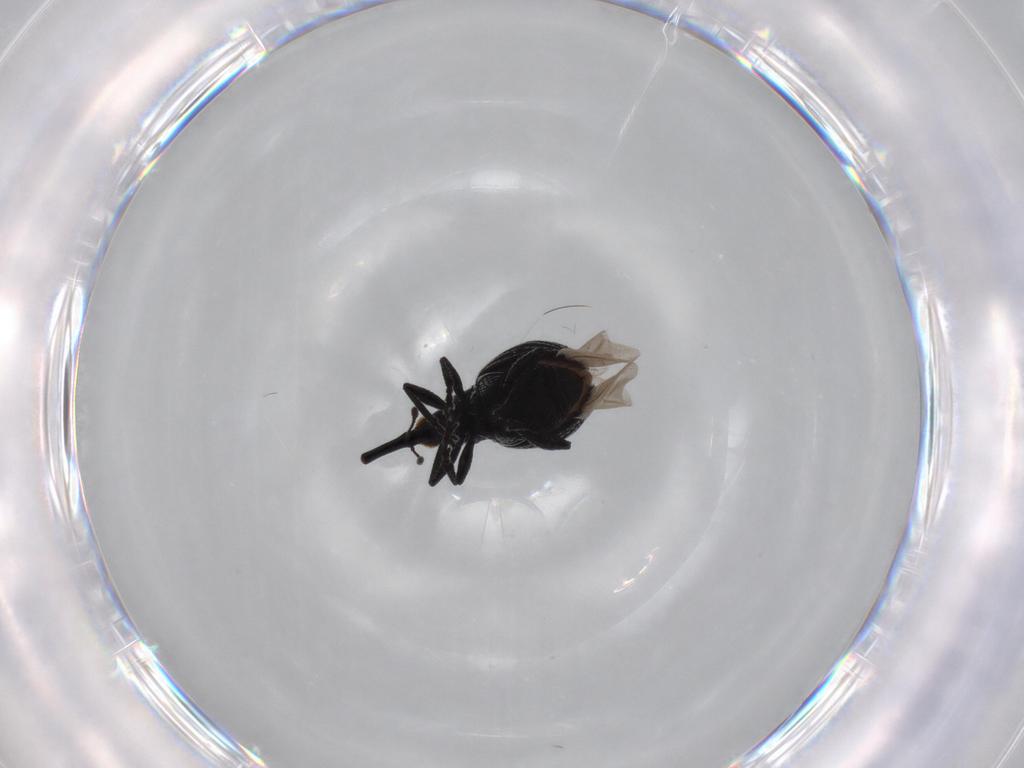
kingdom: Animalia
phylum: Arthropoda
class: Insecta
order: Coleoptera
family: Brentidae
